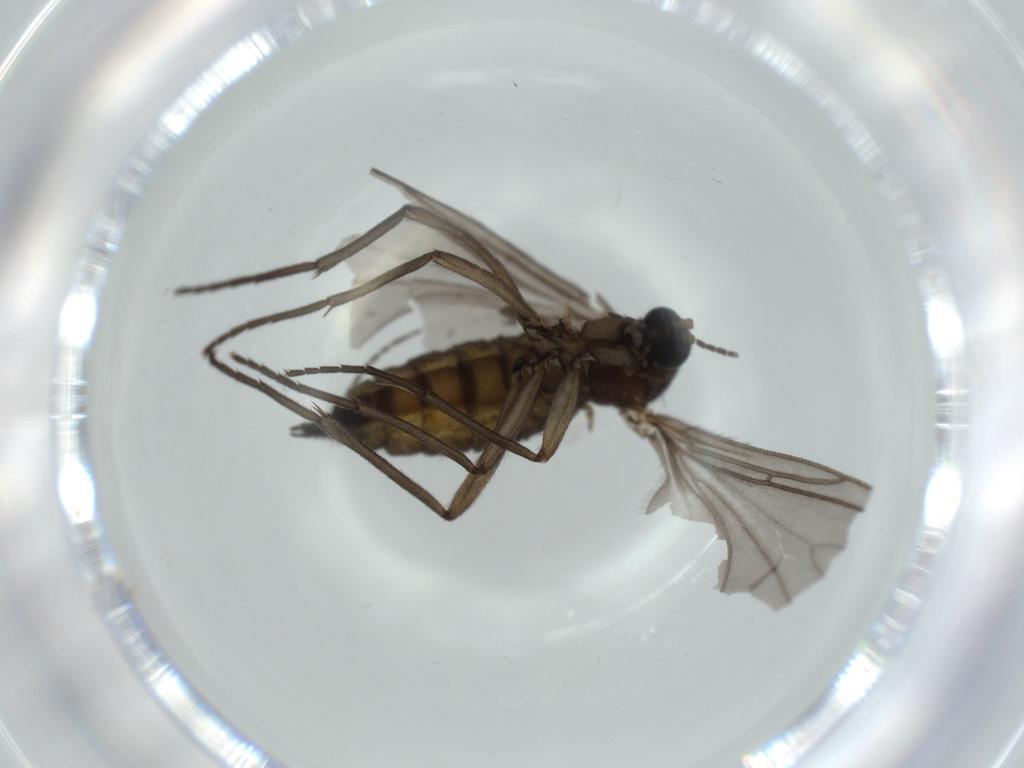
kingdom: Animalia
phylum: Arthropoda
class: Insecta
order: Diptera
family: Sciaridae
